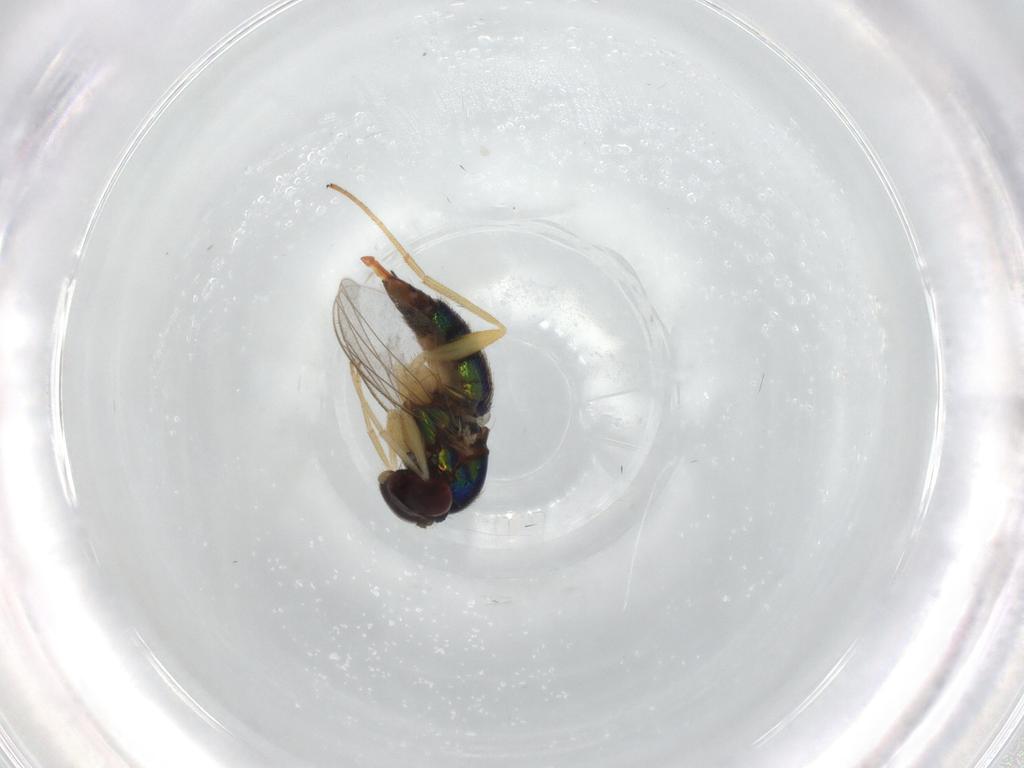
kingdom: Animalia
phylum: Arthropoda
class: Insecta
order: Diptera
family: Dolichopodidae
